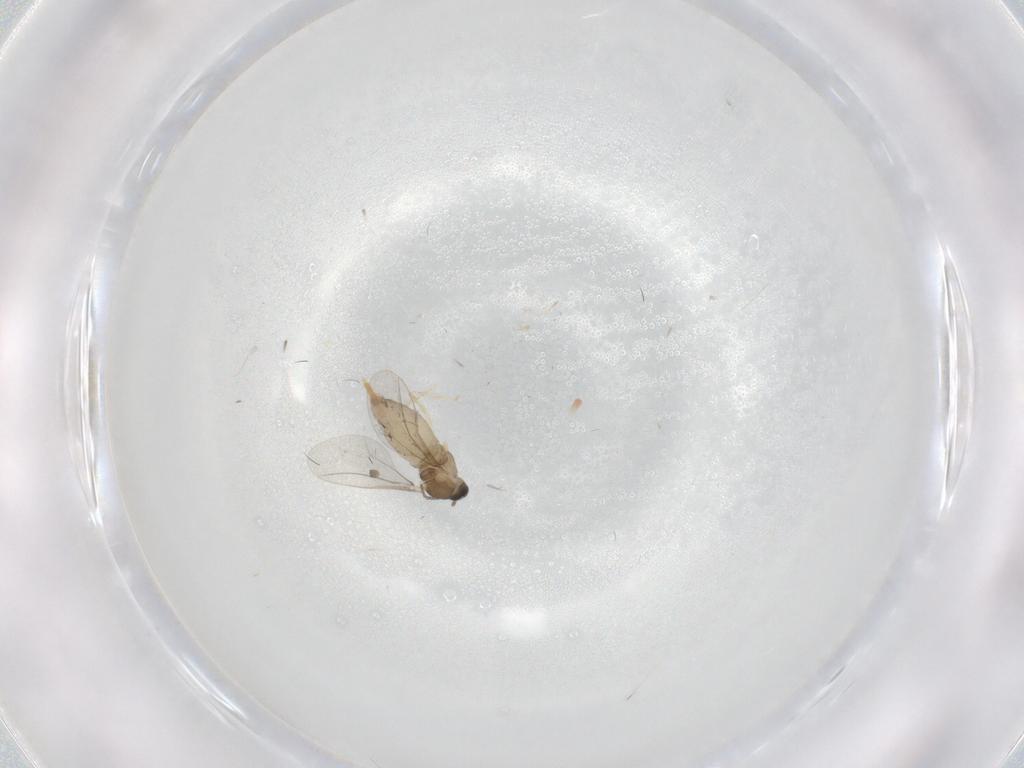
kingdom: Animalia
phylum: Arthropoda
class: Insecta
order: Diptera
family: Cecidomyiidae
